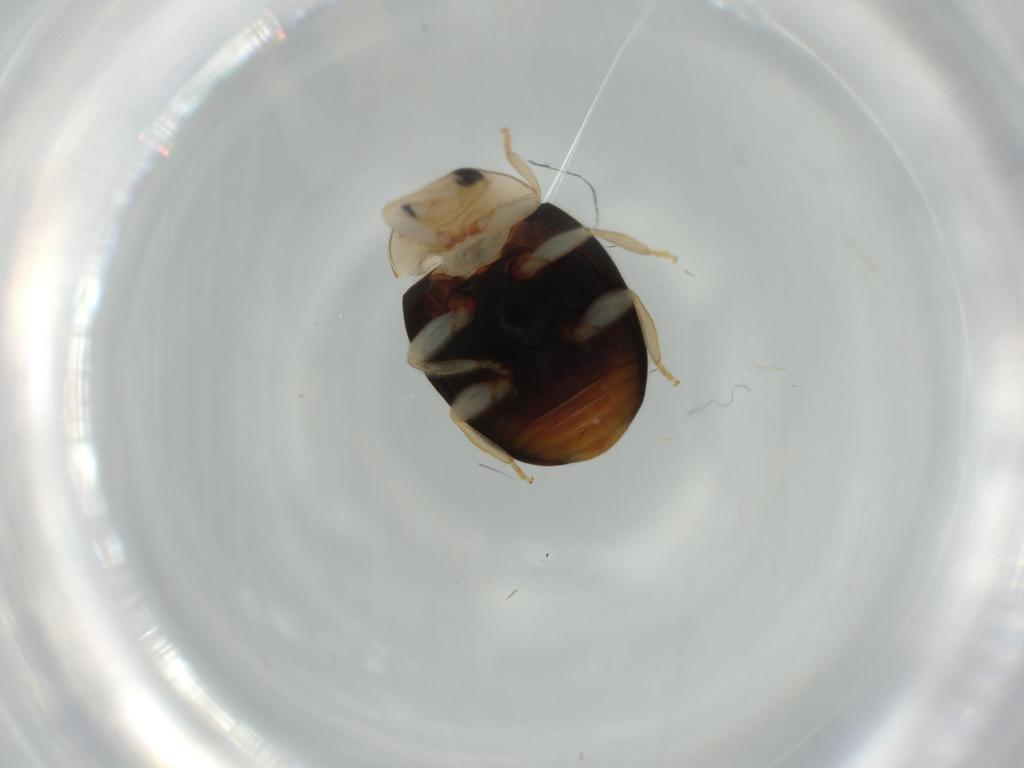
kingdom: Animalia
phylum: Arthropoda
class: Insecta
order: Coleoptera
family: Coccinellidae
